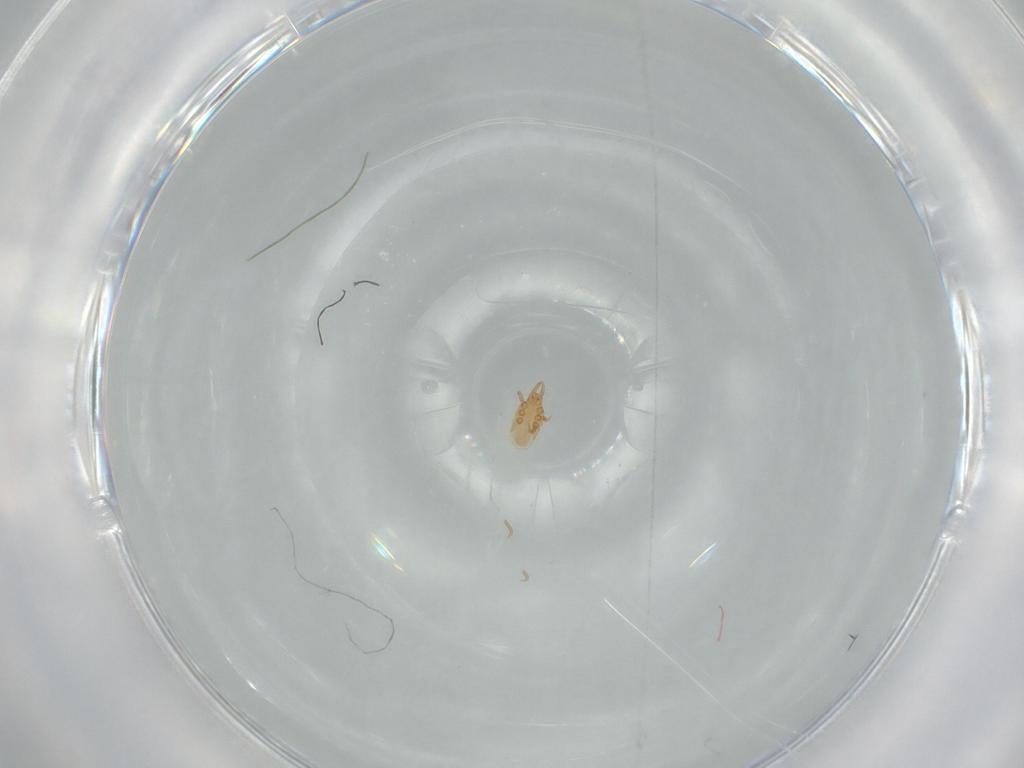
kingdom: Animalia
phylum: Arthropoda
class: Arachnida
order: Mesostigmata
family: Dinychidae
